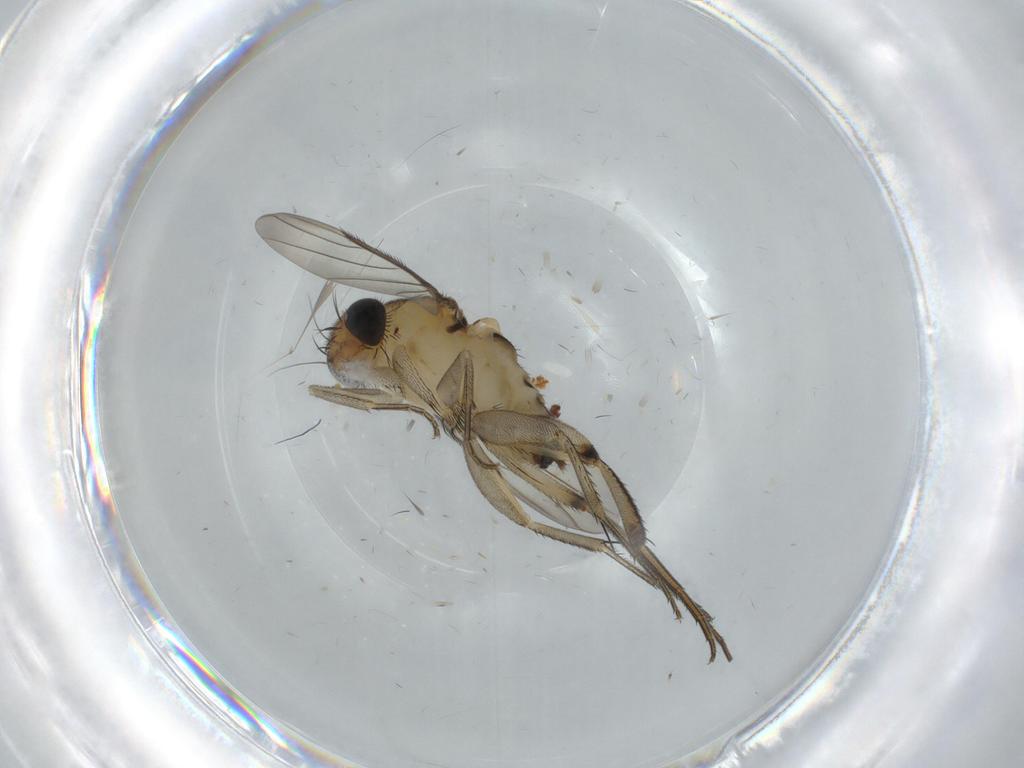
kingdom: Animalia
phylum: Arthropoda
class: Insecta
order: Diptera
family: Phoridae
